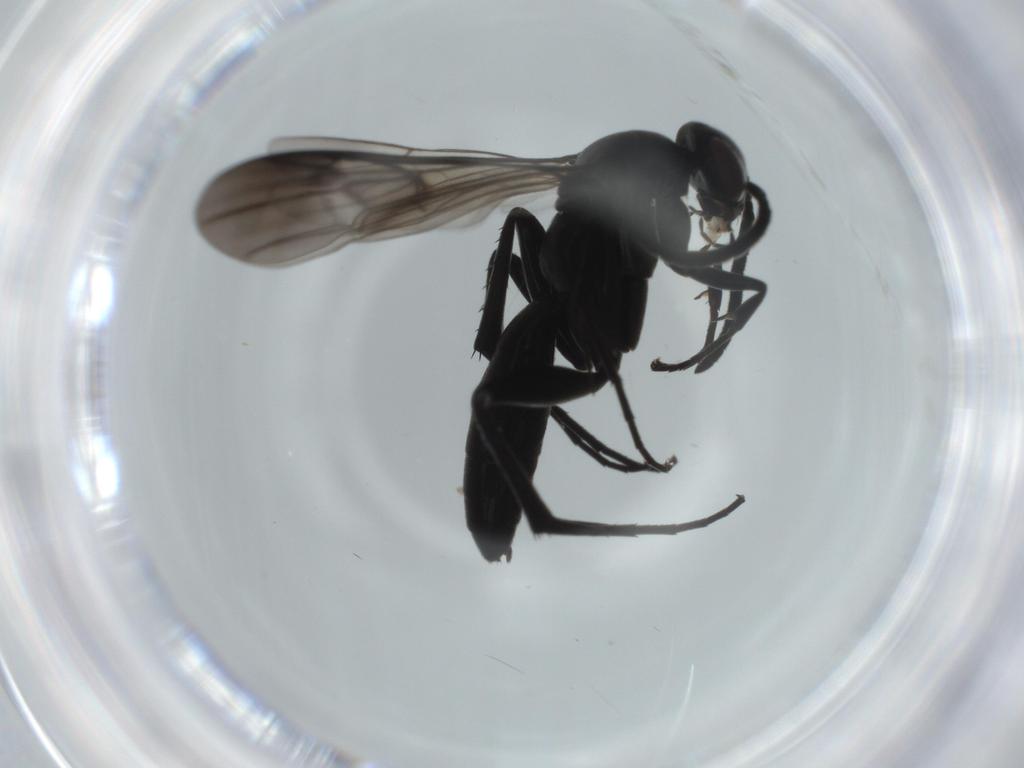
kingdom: Animalia
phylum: Arthropoda
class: Insecta
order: Hymenoptera
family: Pompilidae
